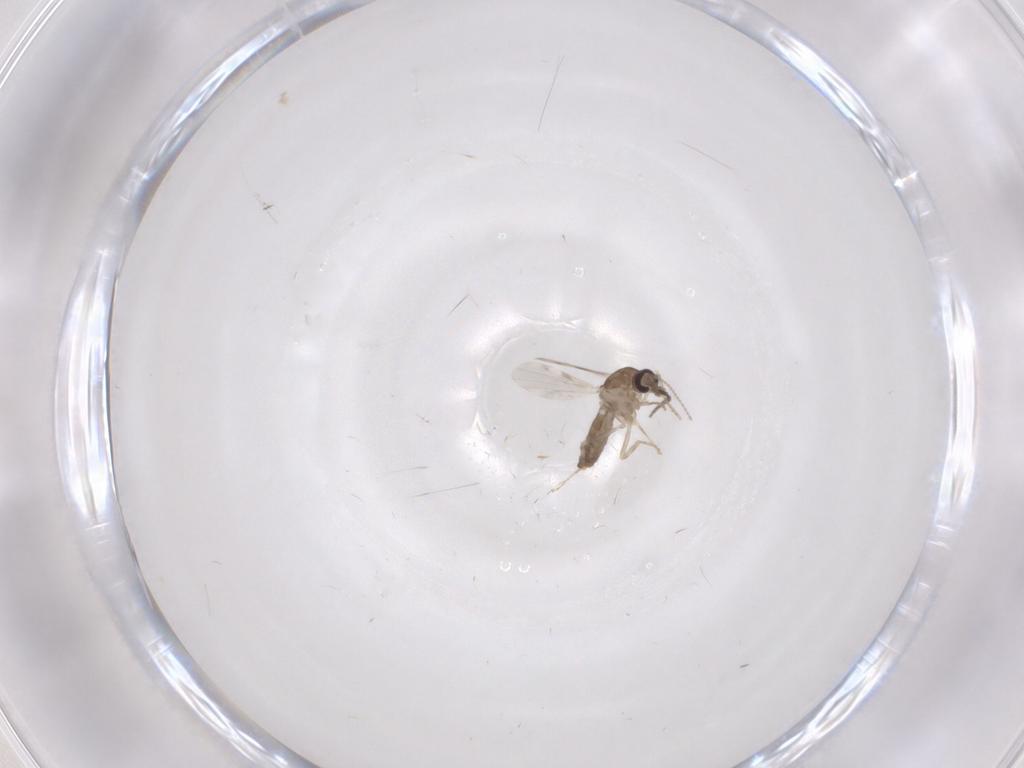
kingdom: Animalia
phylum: Arthropoda
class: Insecta
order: Diptera
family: Ceratopogonidae
